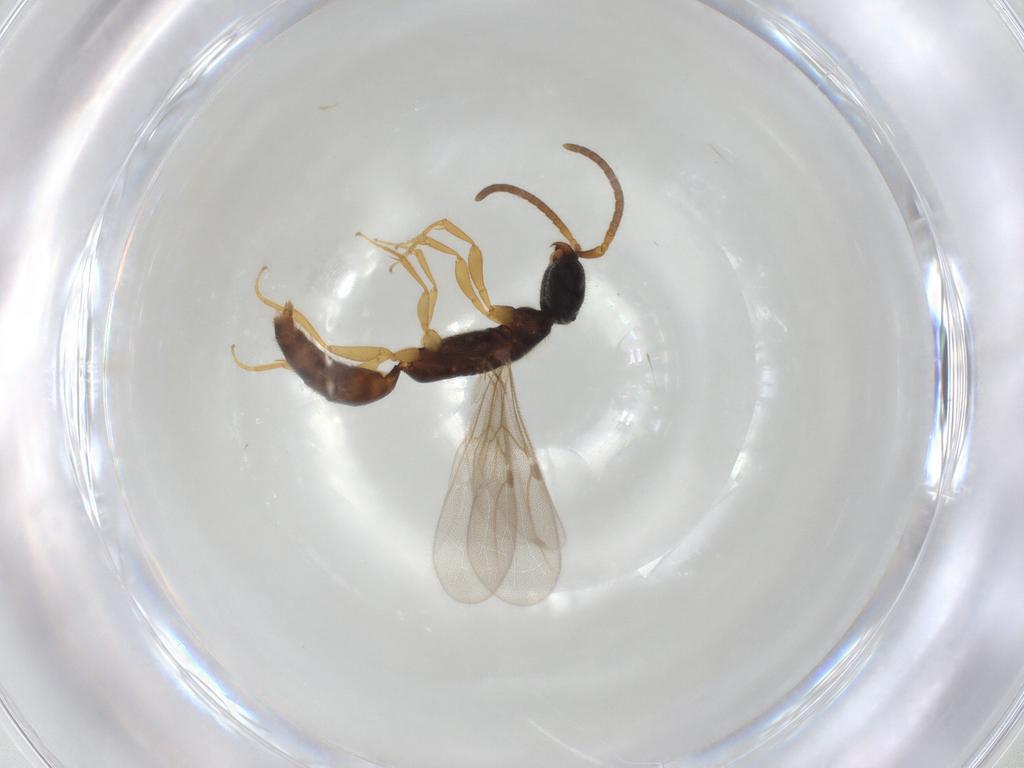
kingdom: Animalia
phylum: Arthropoda
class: Insecta
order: Hymenoptera
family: Bethylidae
